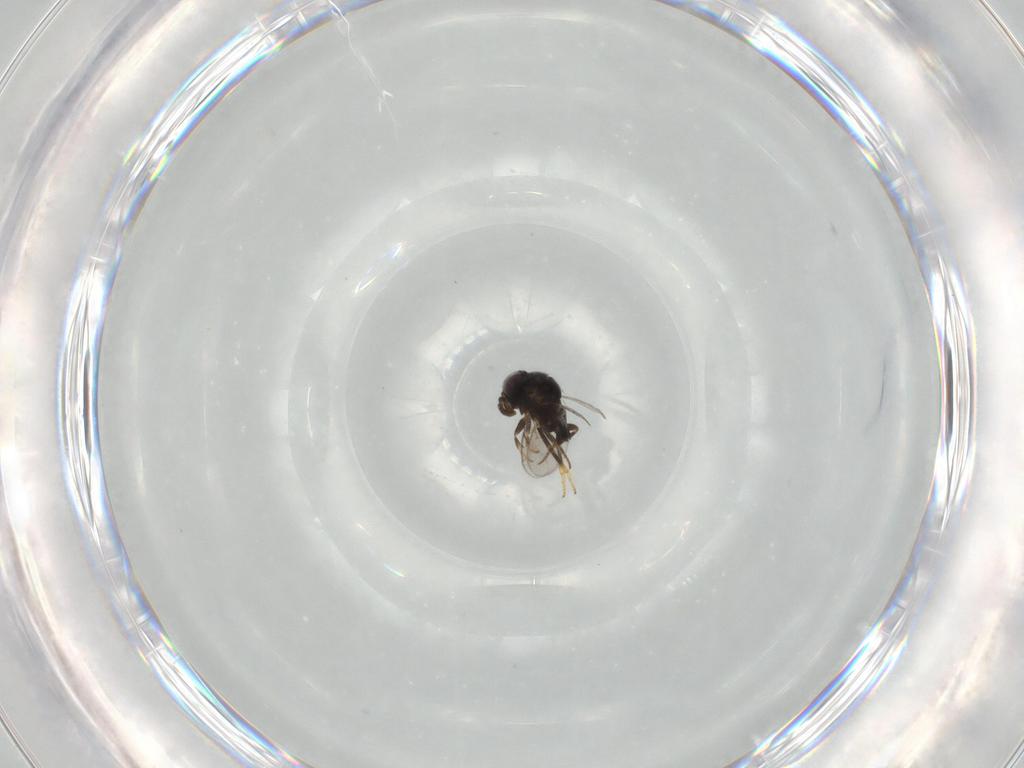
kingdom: Animalia
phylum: Arthropoda
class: Insecta
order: Hymenoptera
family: Encyrtidae
